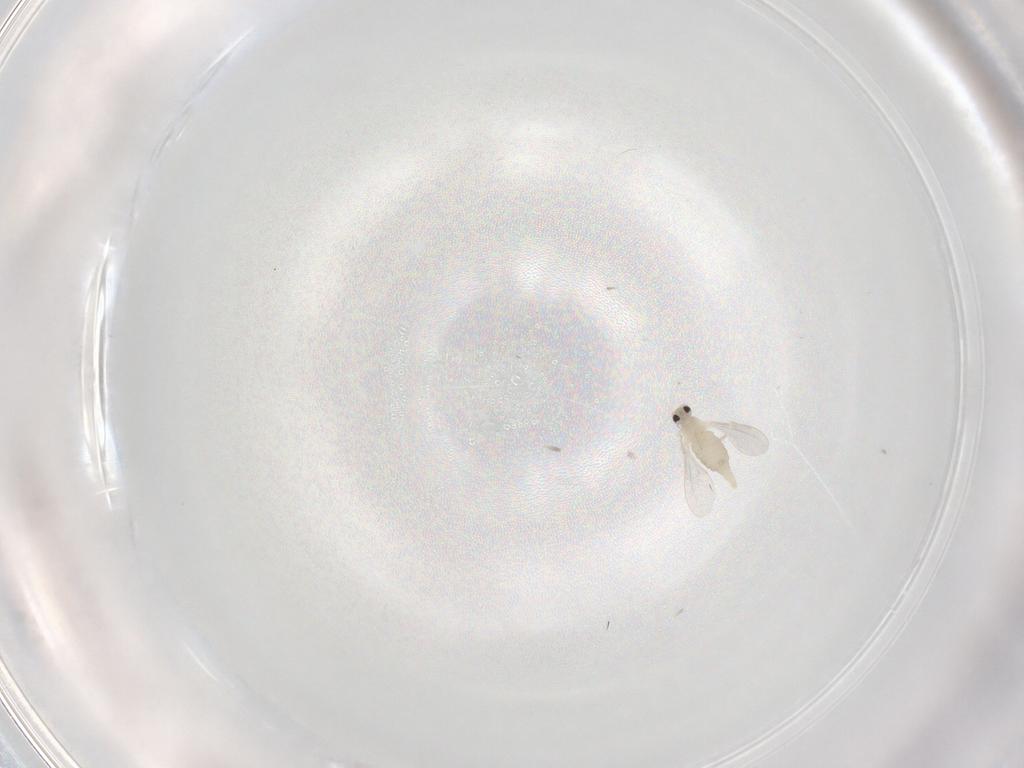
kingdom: Animalia
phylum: Arthropoda
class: Insecta
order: Diptera
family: Cecidomyiidae
